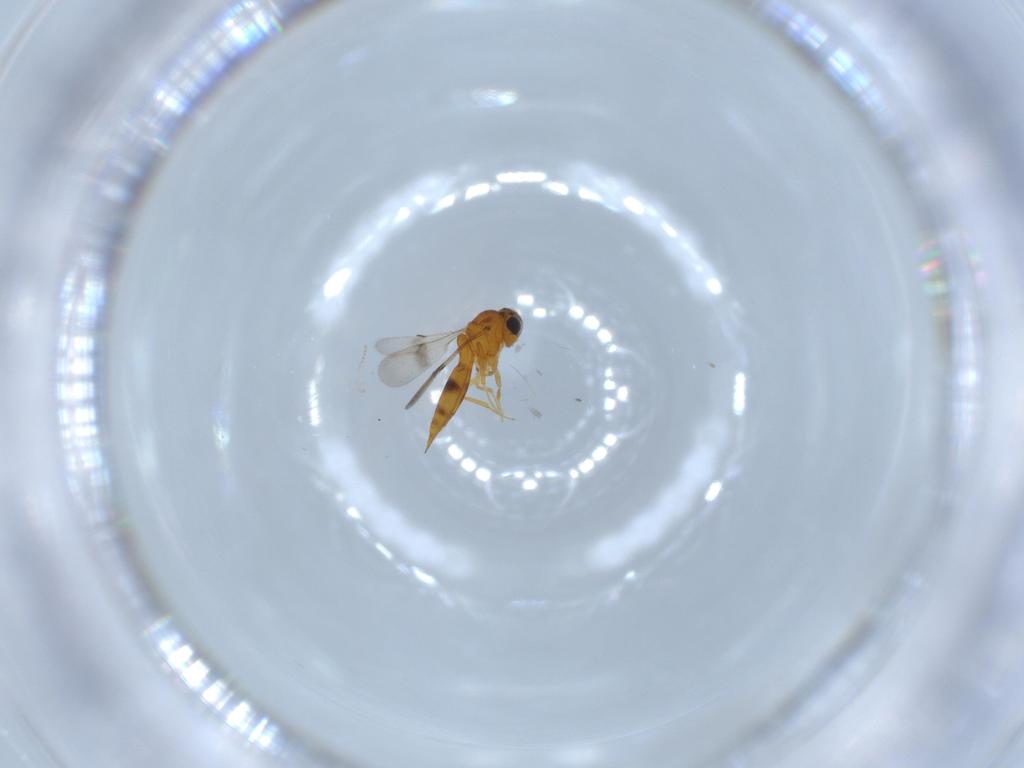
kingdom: Animalia
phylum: Arthropoda
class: Insecta
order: Hymenoptera
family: Scelionidae
